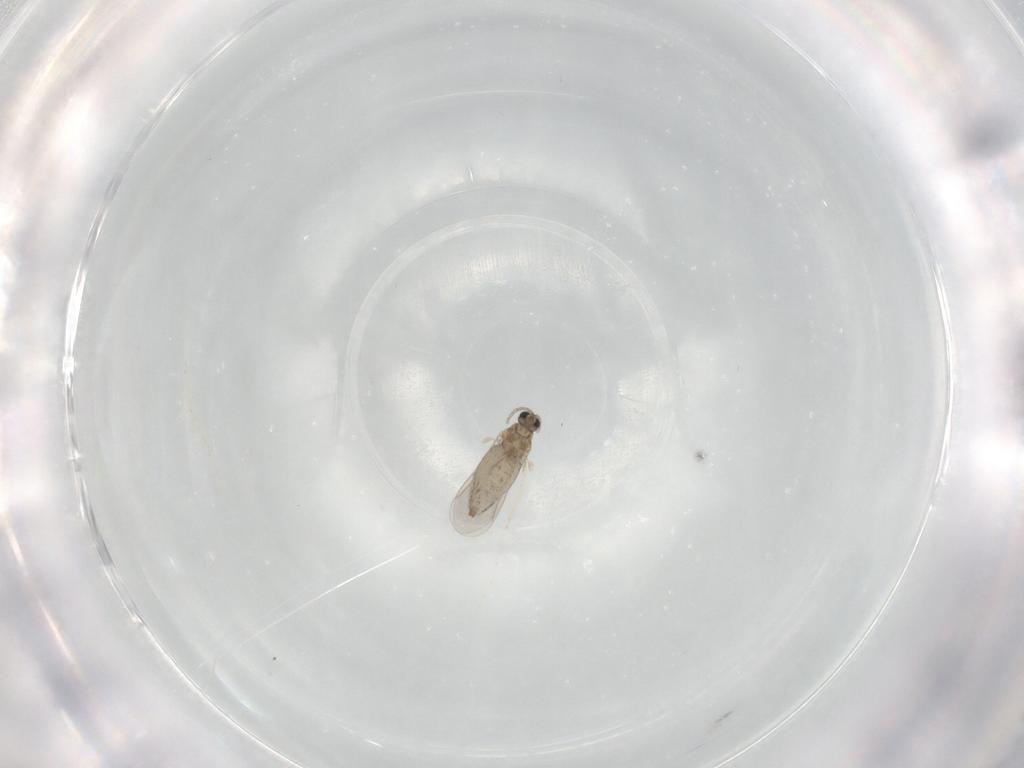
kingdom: Animalia
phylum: Arthropoda
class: Insecta
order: Diptera
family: Cecidomyiidae
